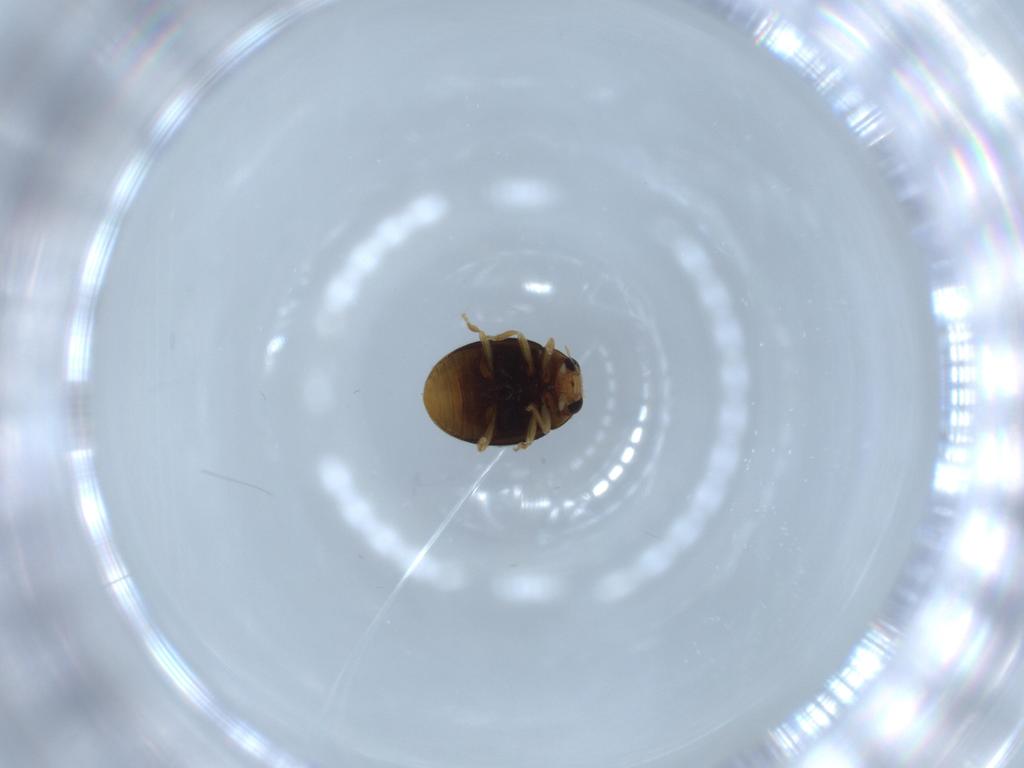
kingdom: Animalia
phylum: Arthropoda
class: Insecta
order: Coleoptera
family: Coccinellidae
